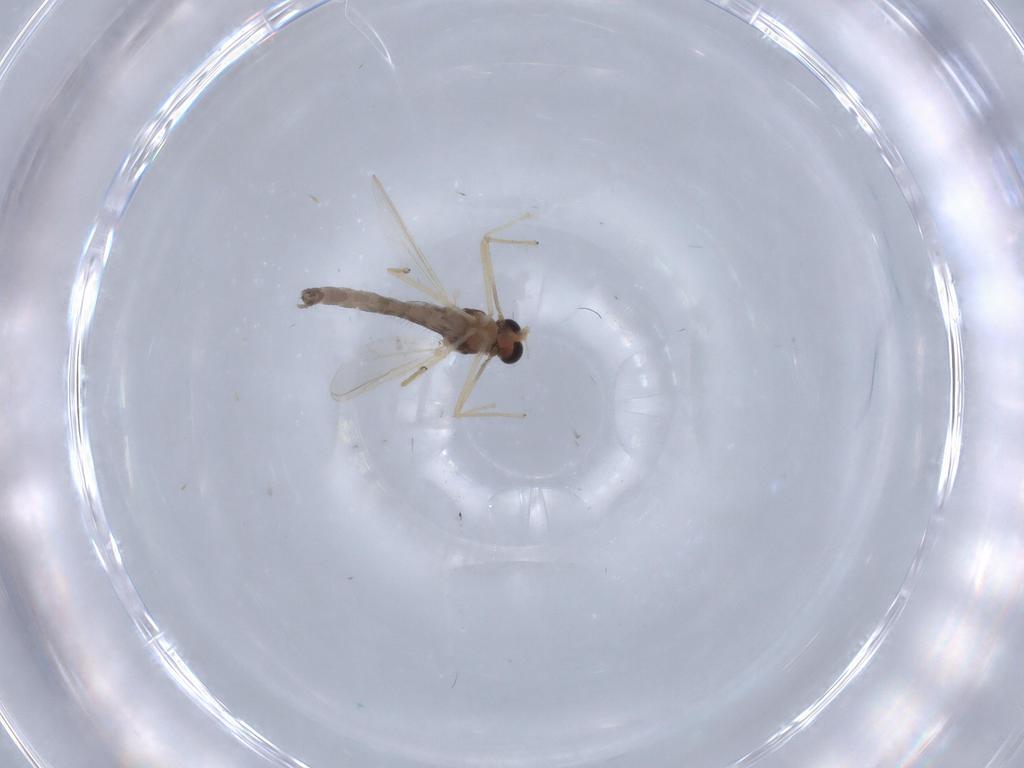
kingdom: Animalia
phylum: Arthropoda
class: Insecta
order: Diptera
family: Chironomidae
